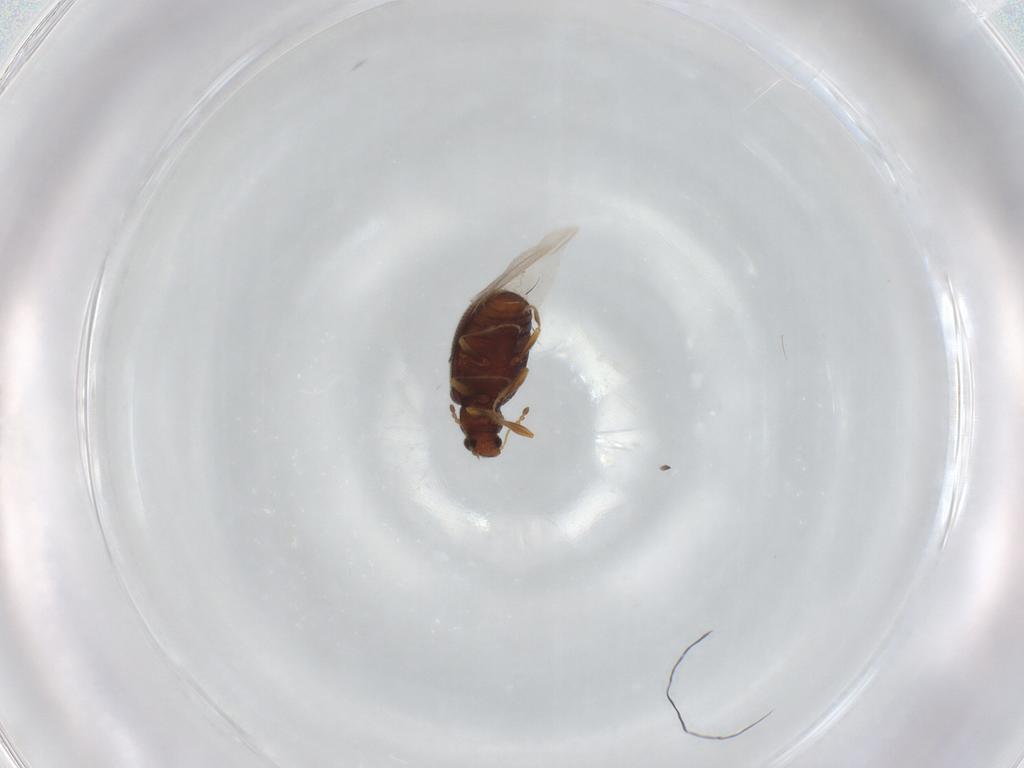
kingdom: Animalia
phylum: Arthropoda
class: Insecta
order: Coleoptera
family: Latridiidae
